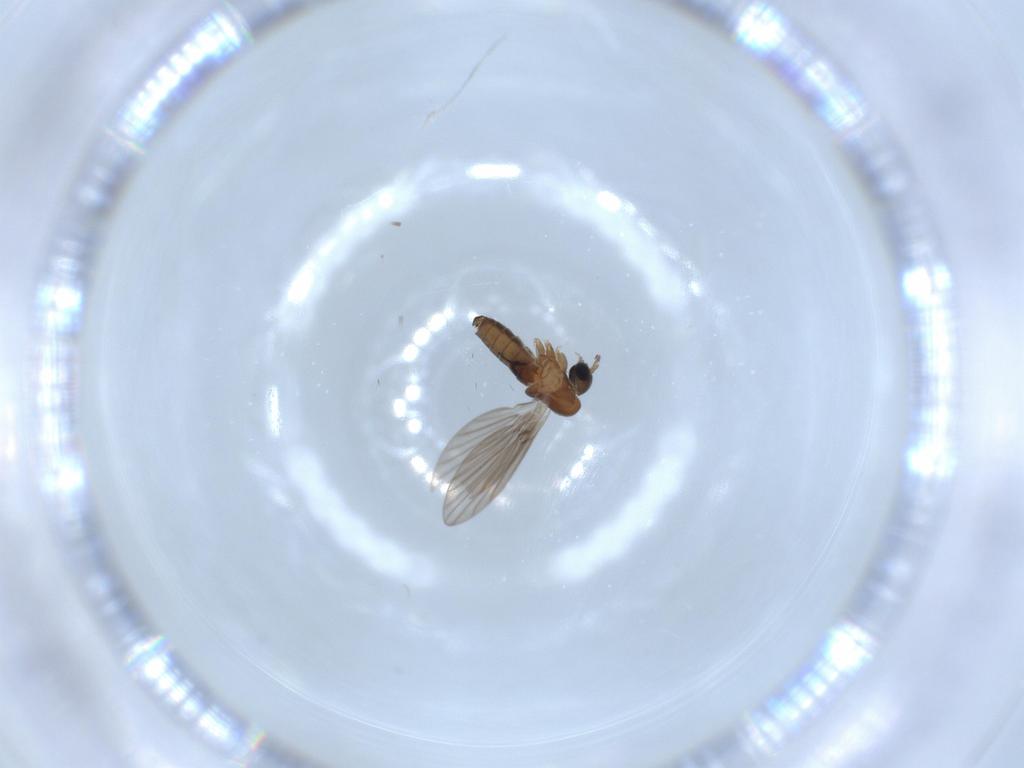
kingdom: Animalia
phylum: Arthropoda
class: Insecta
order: Diptera
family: Psychodidae
